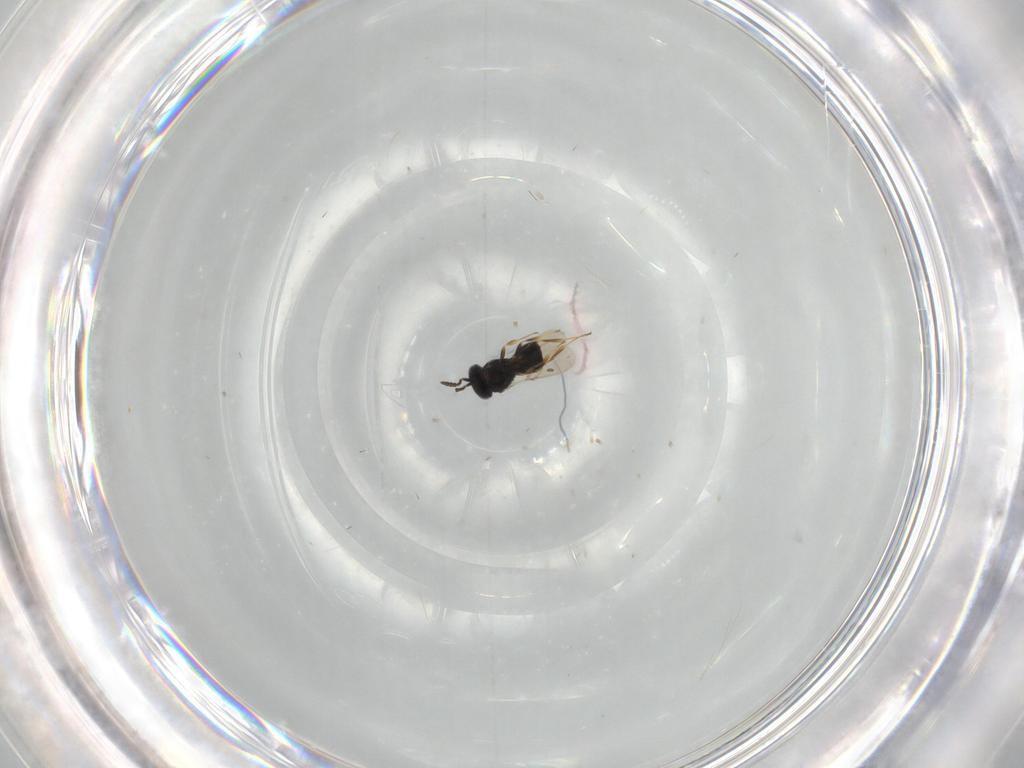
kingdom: Animalia
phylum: Arthropoda
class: Insecta
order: Hymenoptera
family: Scelionidae
